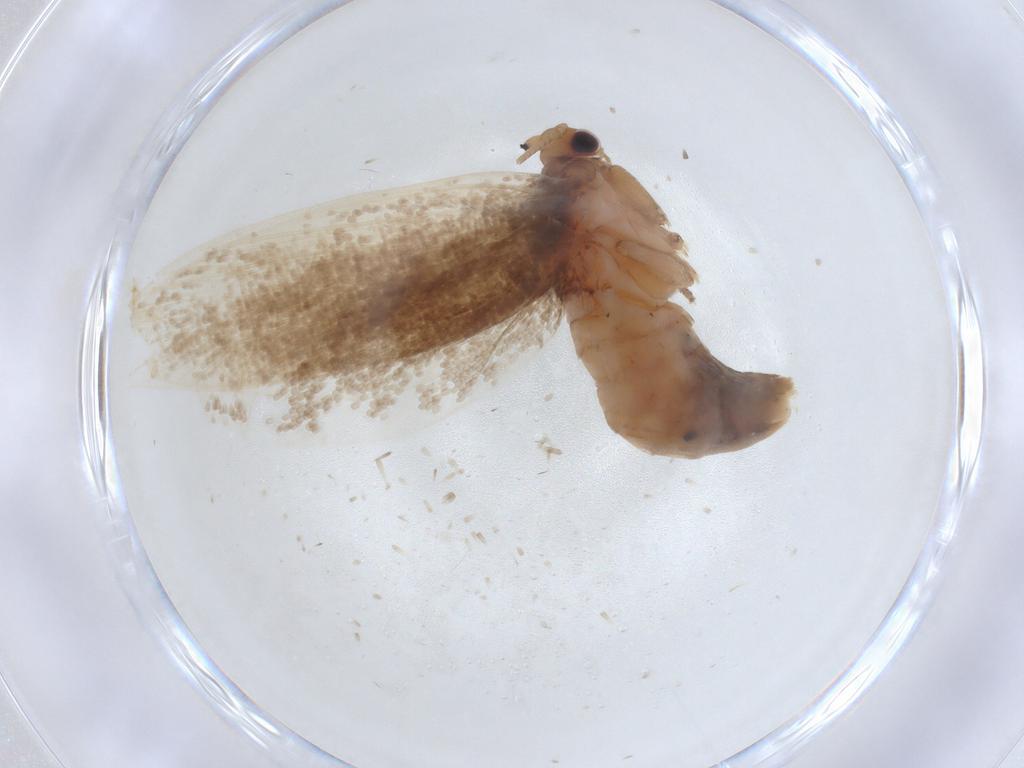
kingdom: Animalia
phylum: Arthropoda
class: Insecta
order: Lepidoptera
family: Tineidae
